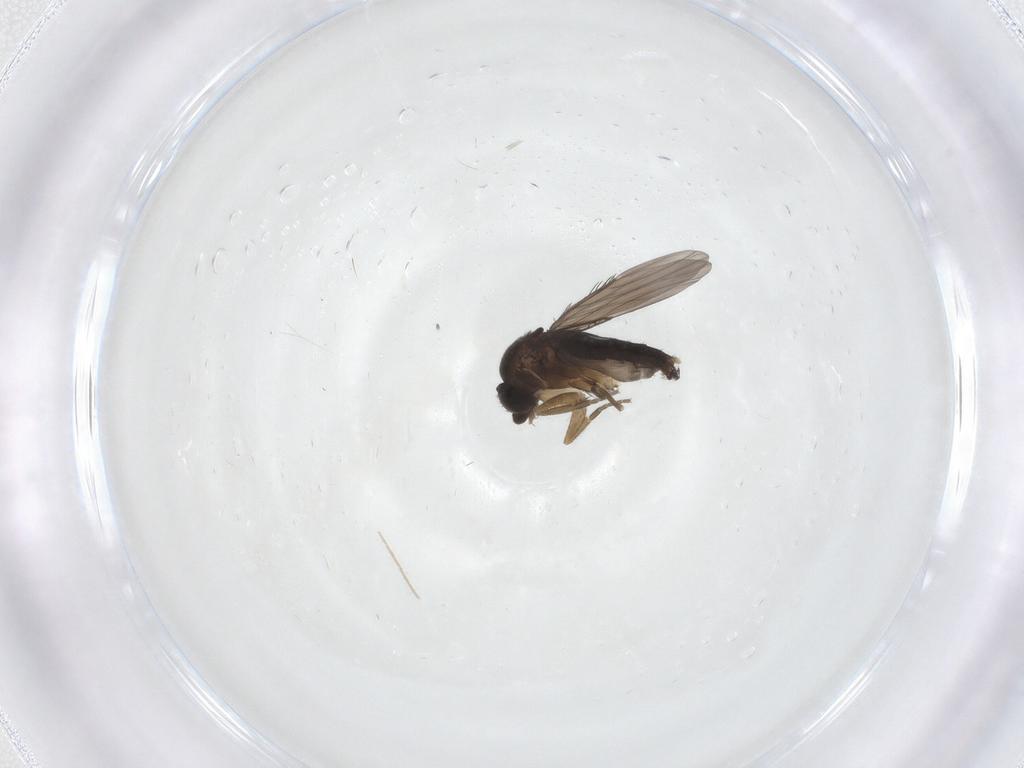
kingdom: Animalia
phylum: Arthropoda
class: Insecta
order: Diptera
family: Phoridae
